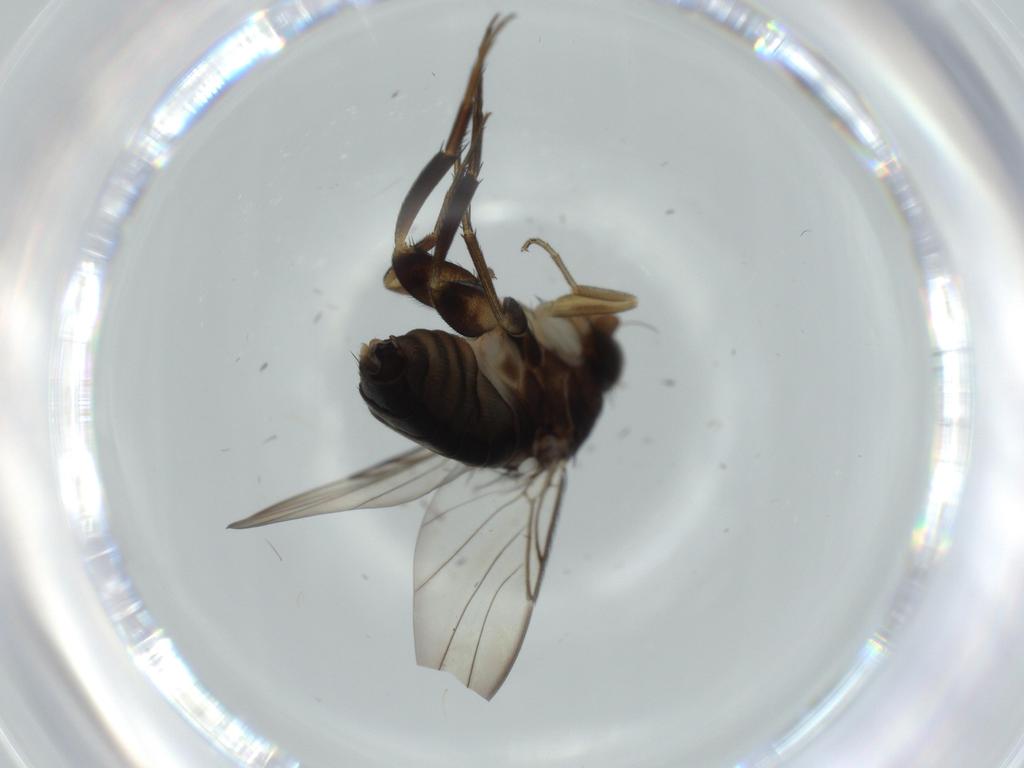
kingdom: Animalia
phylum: Arthropoda
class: Insecta
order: Diptera
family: Phoridae
